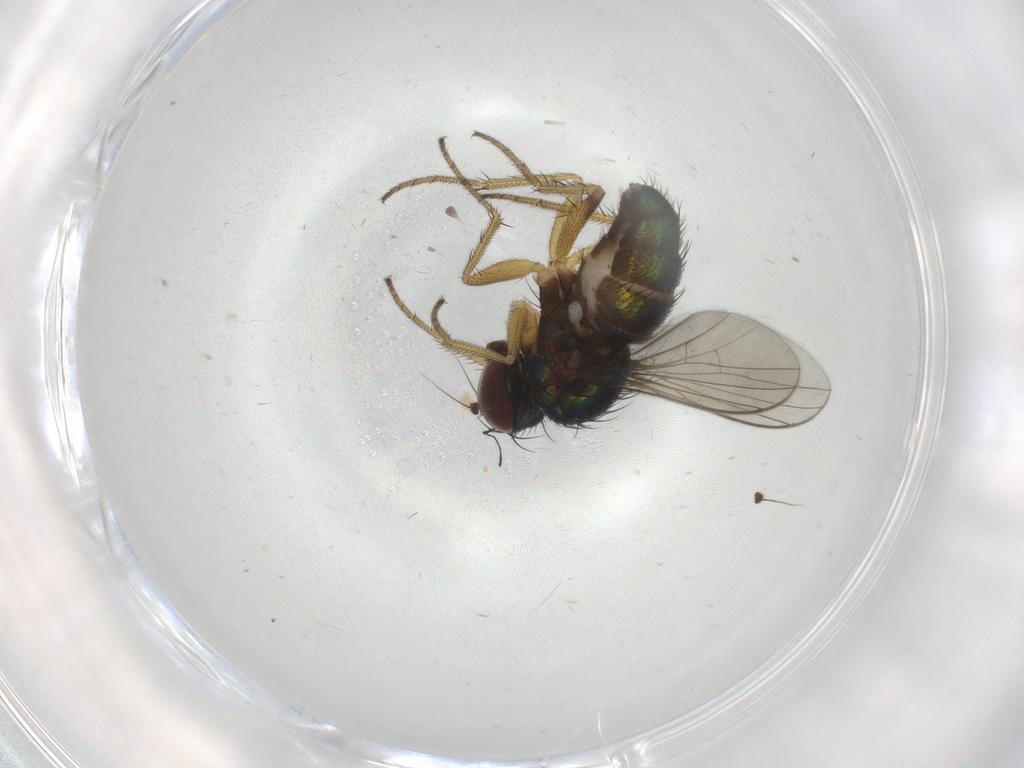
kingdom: Animalia
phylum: Arthropoda
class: Insecta
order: Diptera
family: Dolichopodidae
